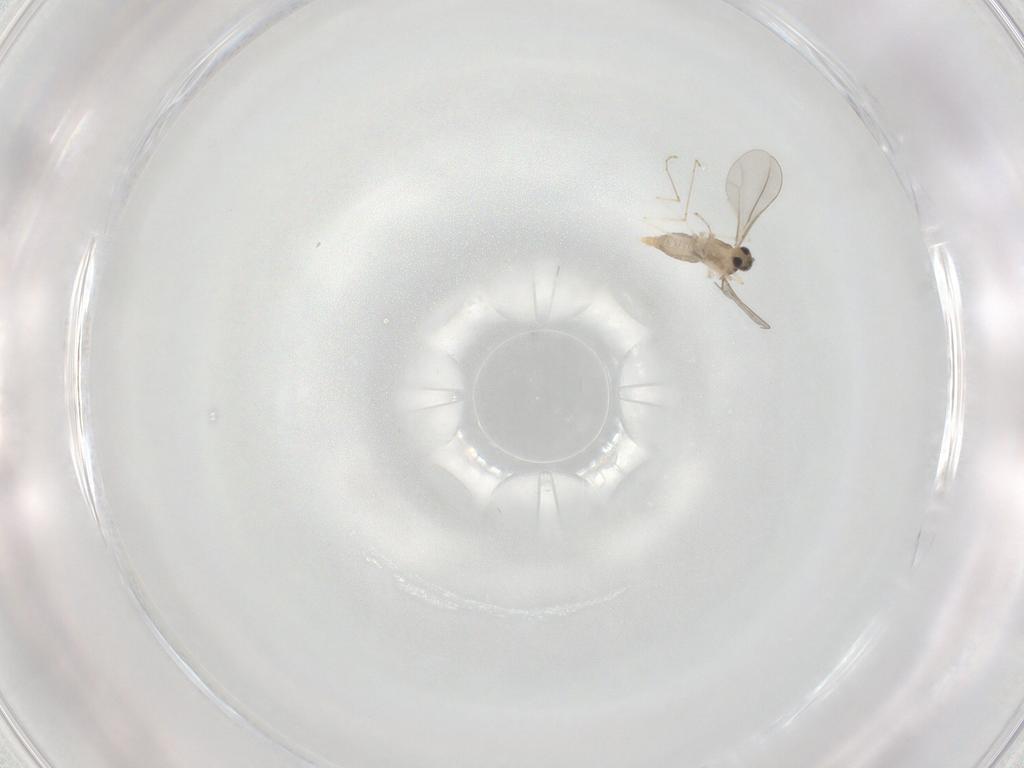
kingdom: Animalia
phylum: Arthropoda
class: Insecta
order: Diptera
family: Cecidomyiidae
